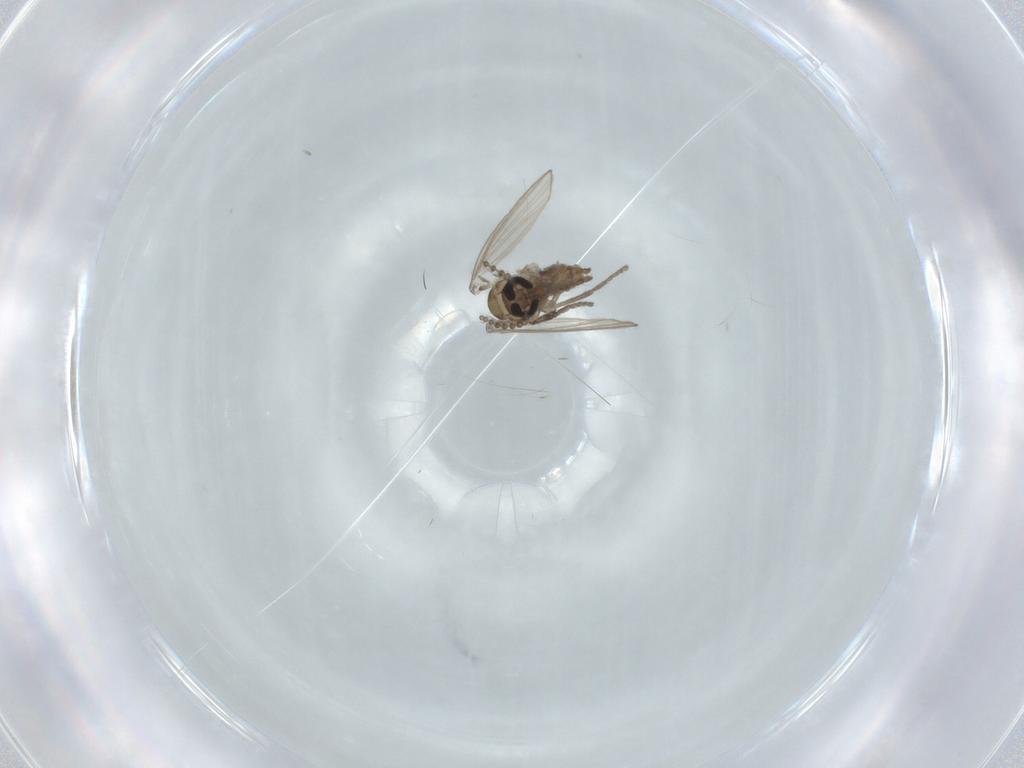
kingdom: Animalia
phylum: Arthropoda
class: Insecta
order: Diptera
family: Psychodidae
